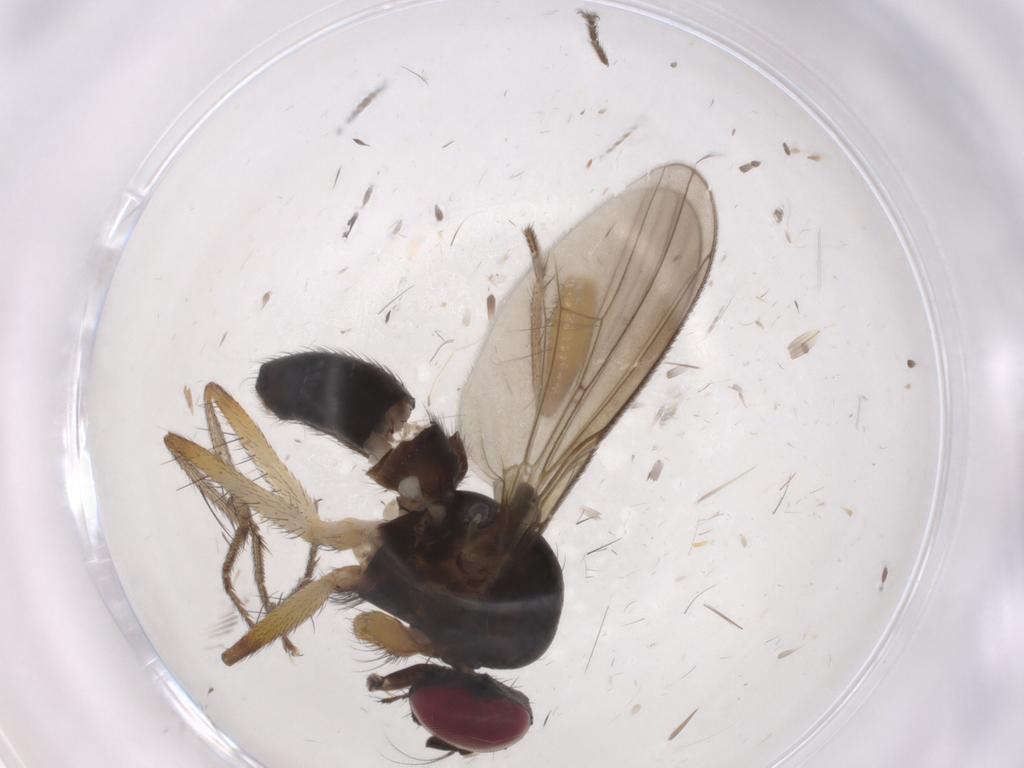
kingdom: Animalia
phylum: Arthropoda
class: Insecta
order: Diptera
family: Anthomyiidae
